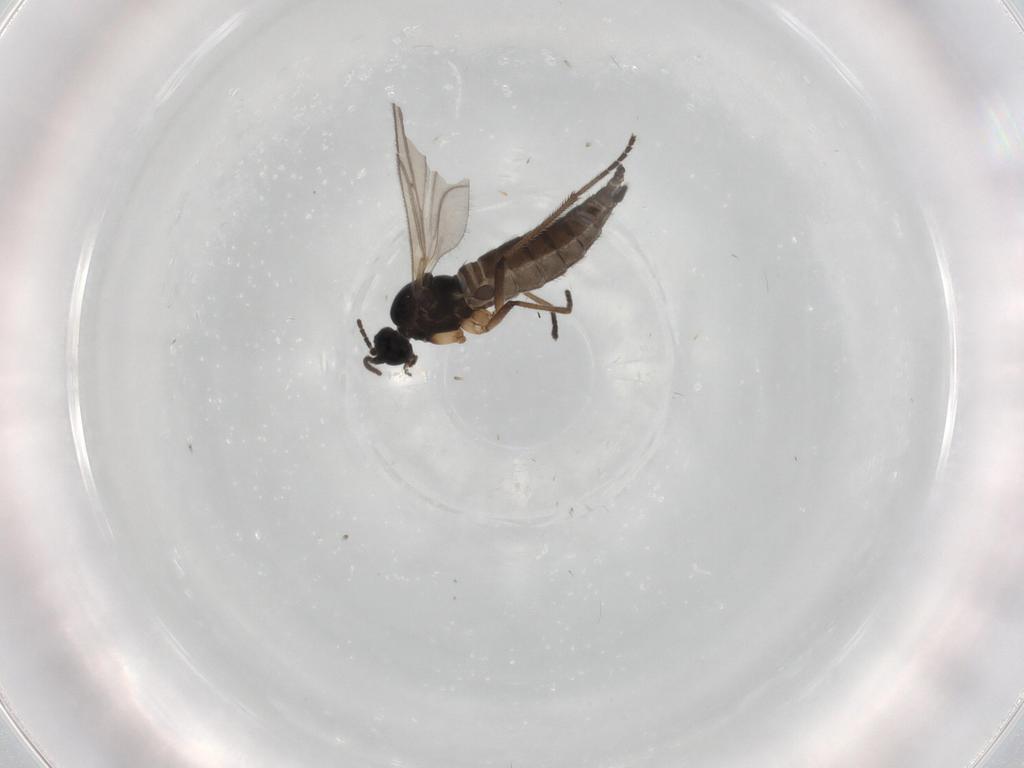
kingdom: Animalia
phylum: Arthropoda
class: Insecta
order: Diptera
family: Sciaridae
